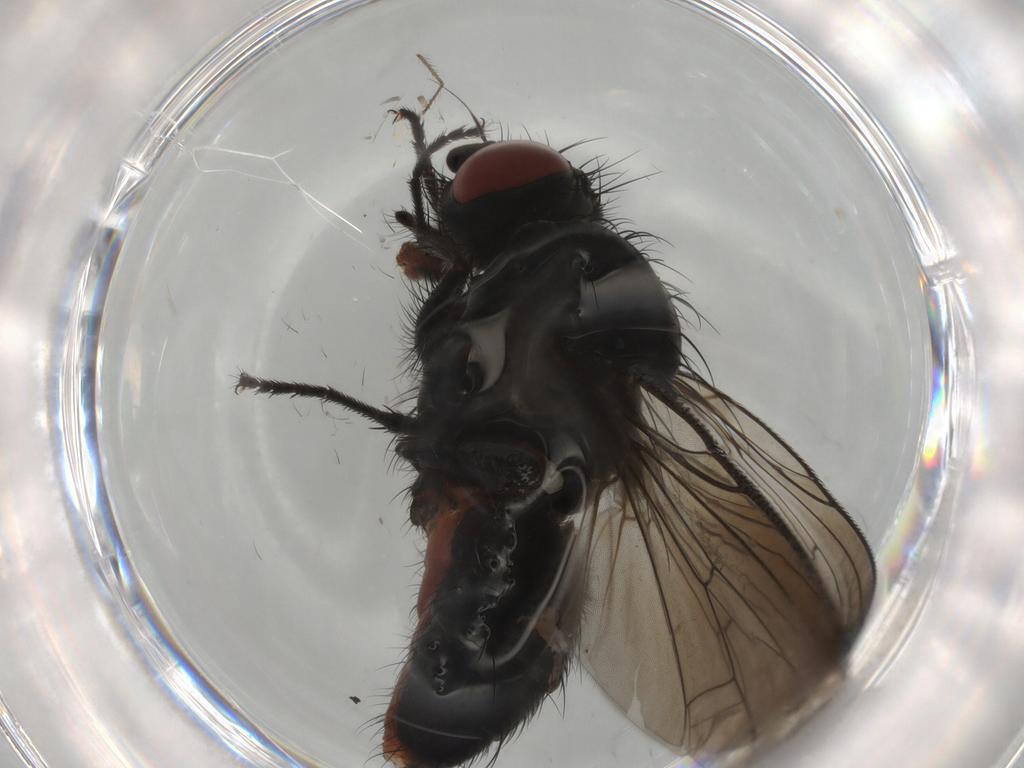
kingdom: Animalia
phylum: Arthropoda
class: Insecta
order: Diptera
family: Anthomyiidae
